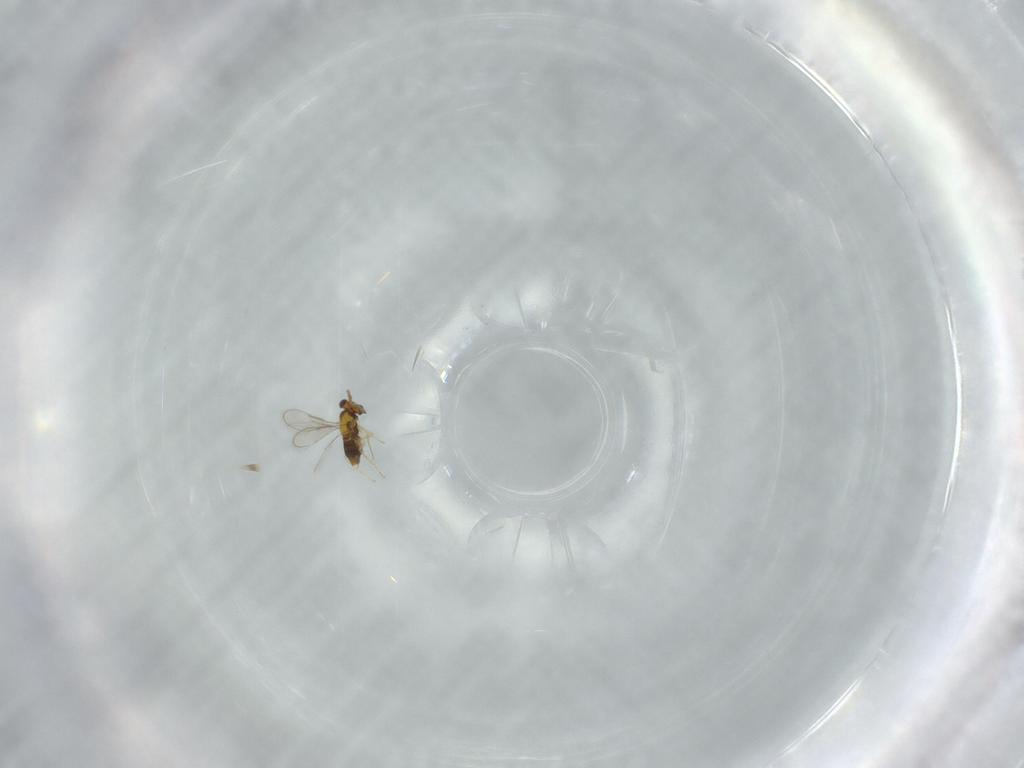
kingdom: Animalia
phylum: Arthropoda
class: Insecta
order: Hymenoptera
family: Aphelinidae
